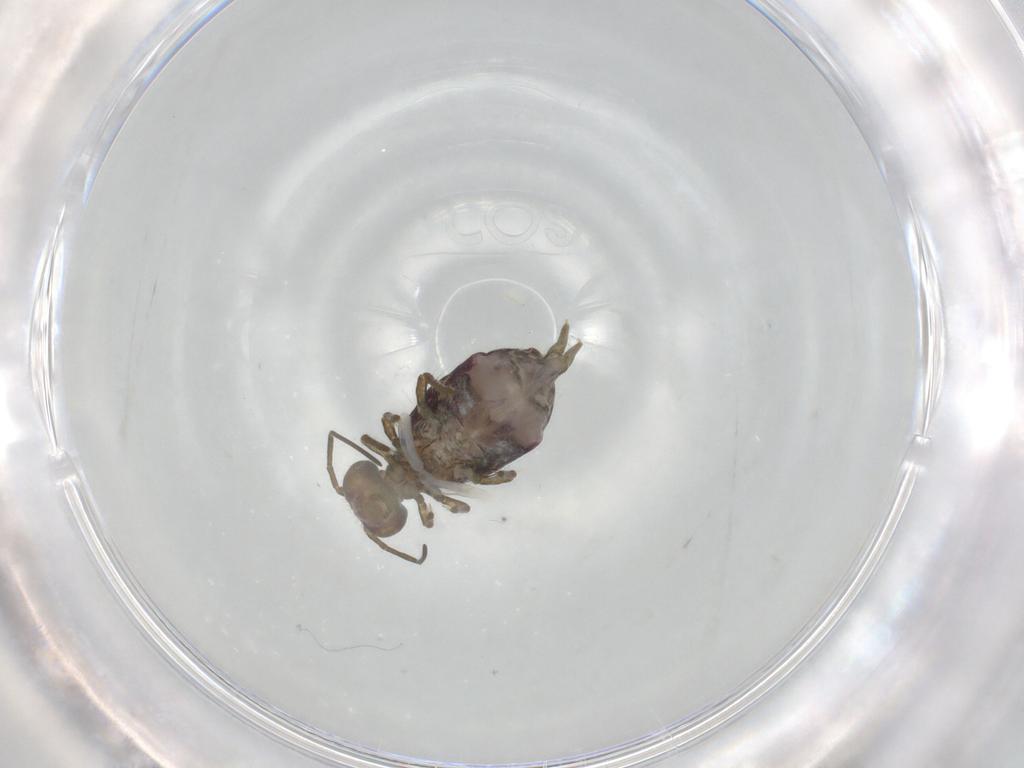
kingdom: Animalia
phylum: Arthropoda
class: Collembola
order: Symphypleona
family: Sminthuridae
